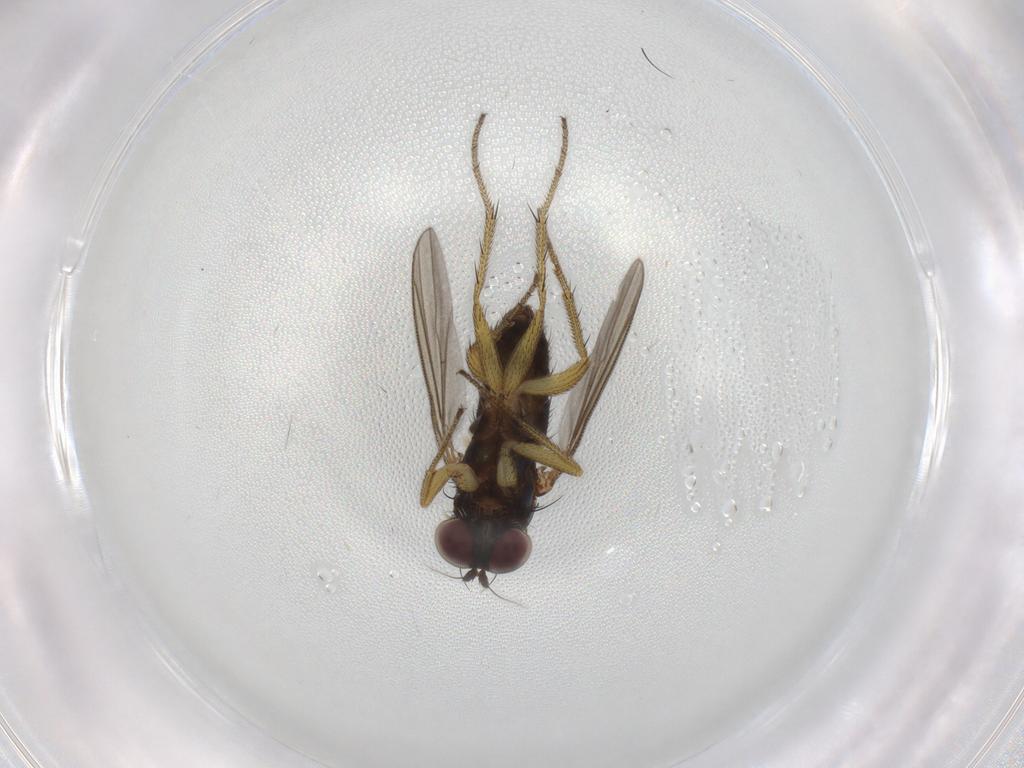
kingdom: Animalia
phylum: Arthropoda
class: Insecta
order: Diptera
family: Dolichopodidae
